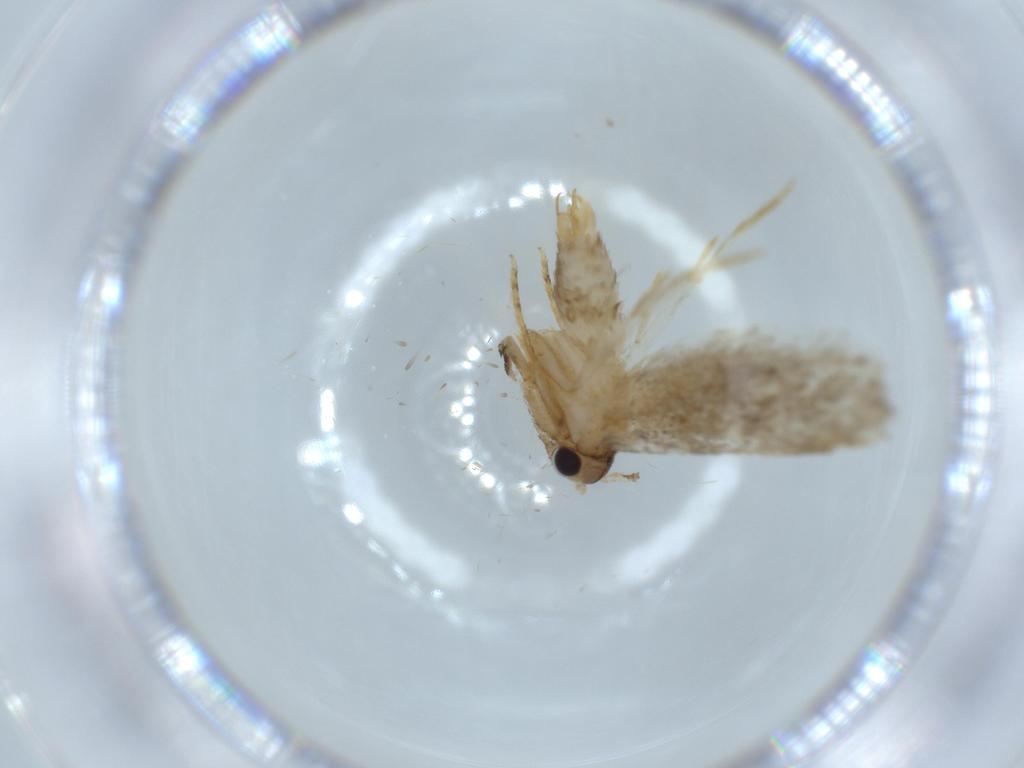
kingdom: Animalia
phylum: Arthropoda
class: Insecta
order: Lepidoptera
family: Tineidae
